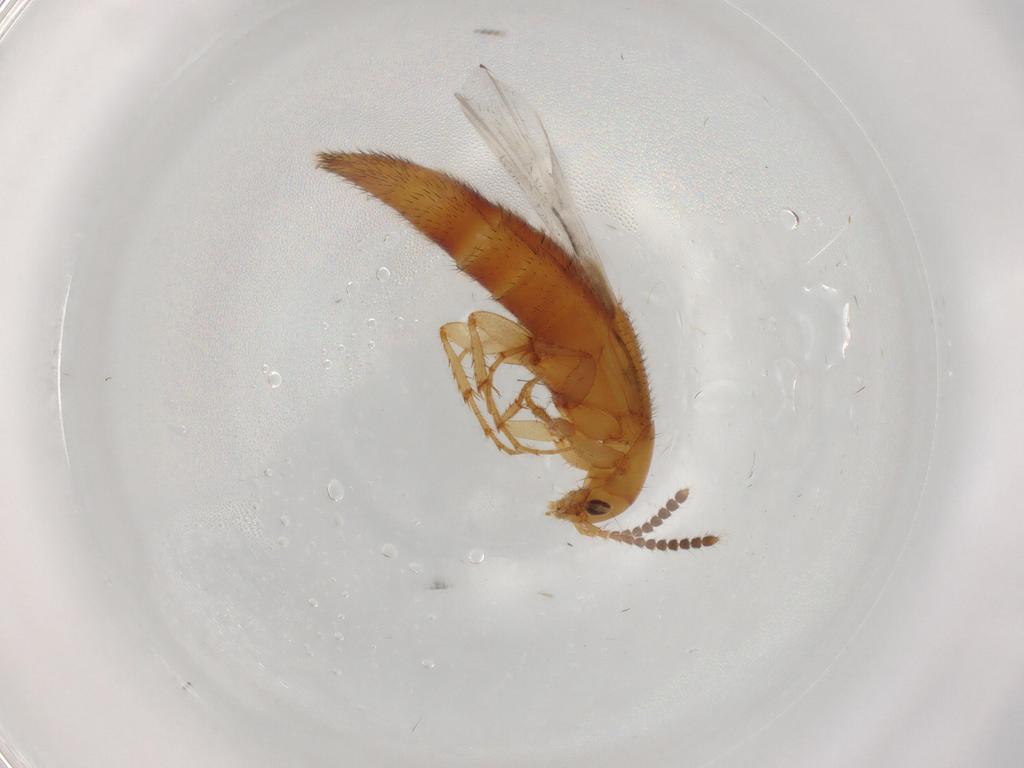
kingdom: Animalia
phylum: Arthropoda
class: Insecta
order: Coleoptera
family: Staphylinidae
